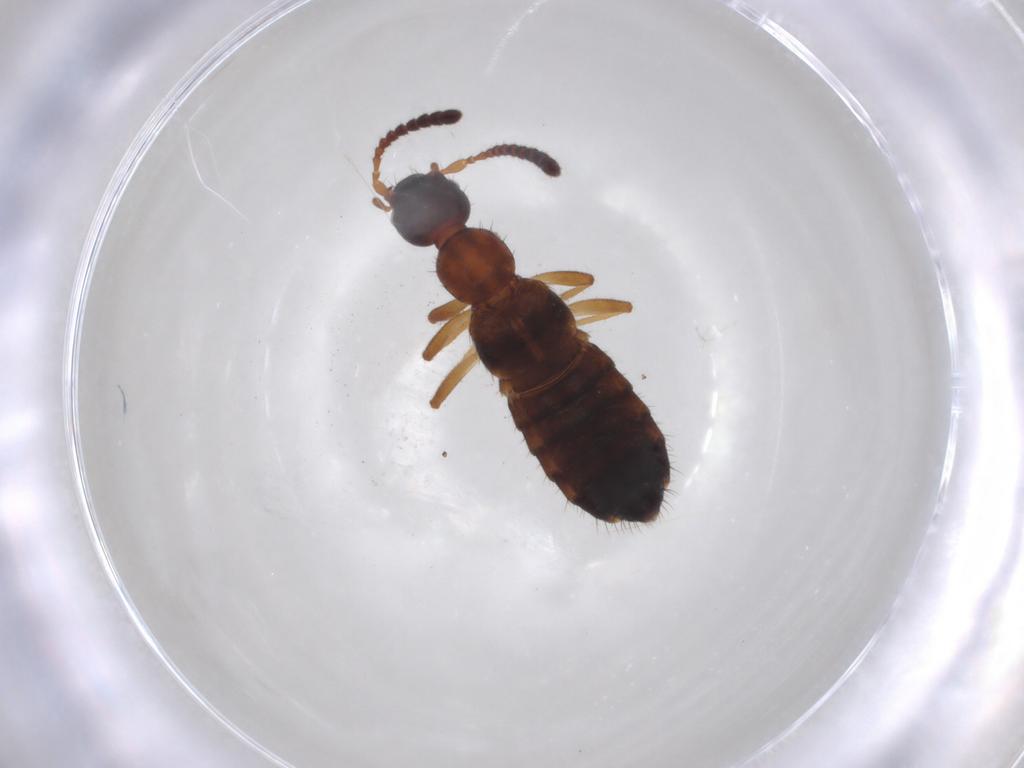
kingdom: Animalia
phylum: Arthropoda
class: Insecta
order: Coleoptera
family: Staphylinidae
